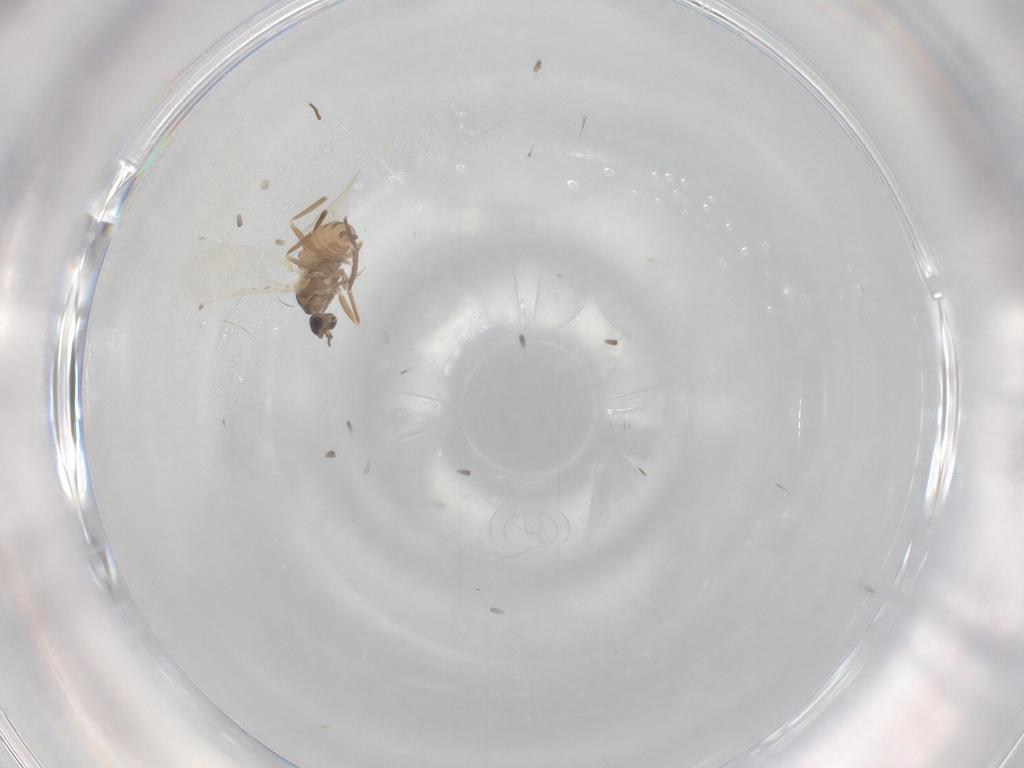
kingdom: Animalia
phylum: Arthropoda
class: Insecta
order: Diptera
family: Cecidomyiidae
